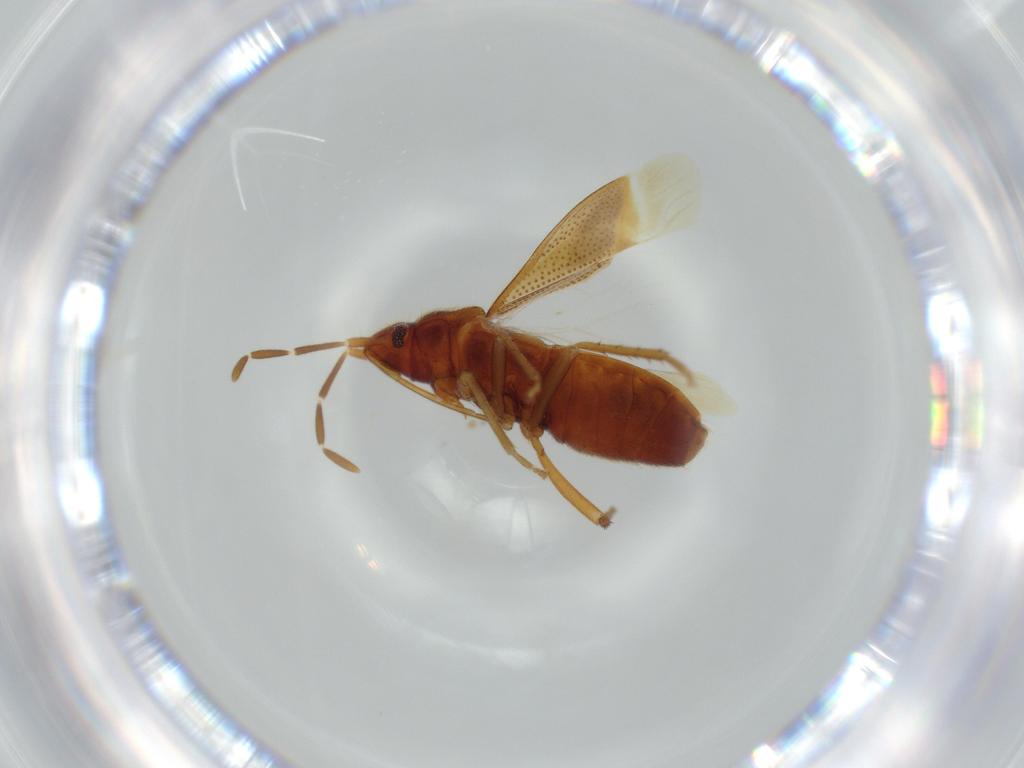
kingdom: Animalia
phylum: Arthropoda
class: Insecta
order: Hemiptera
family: Rhyparochromidae
